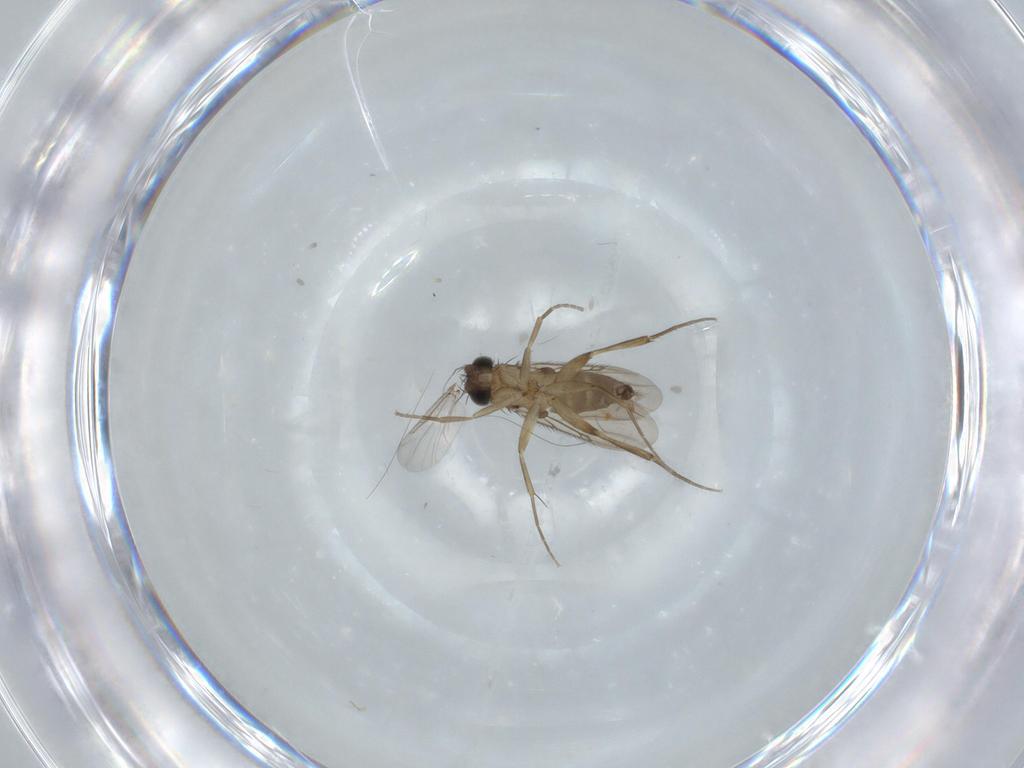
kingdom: Animalia
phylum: Arthropoda
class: Insecta
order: Diptera
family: Phoridae
